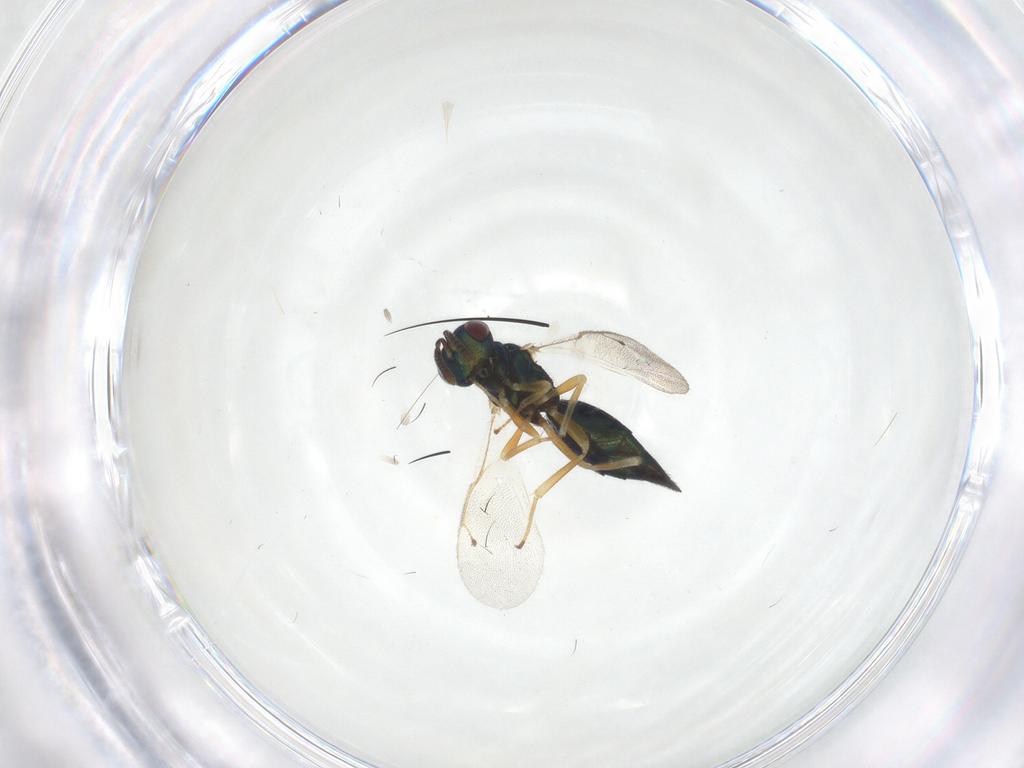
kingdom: Animalia
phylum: Arthropoda
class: Insecta
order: Hymenoptera
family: Pteromalidae
